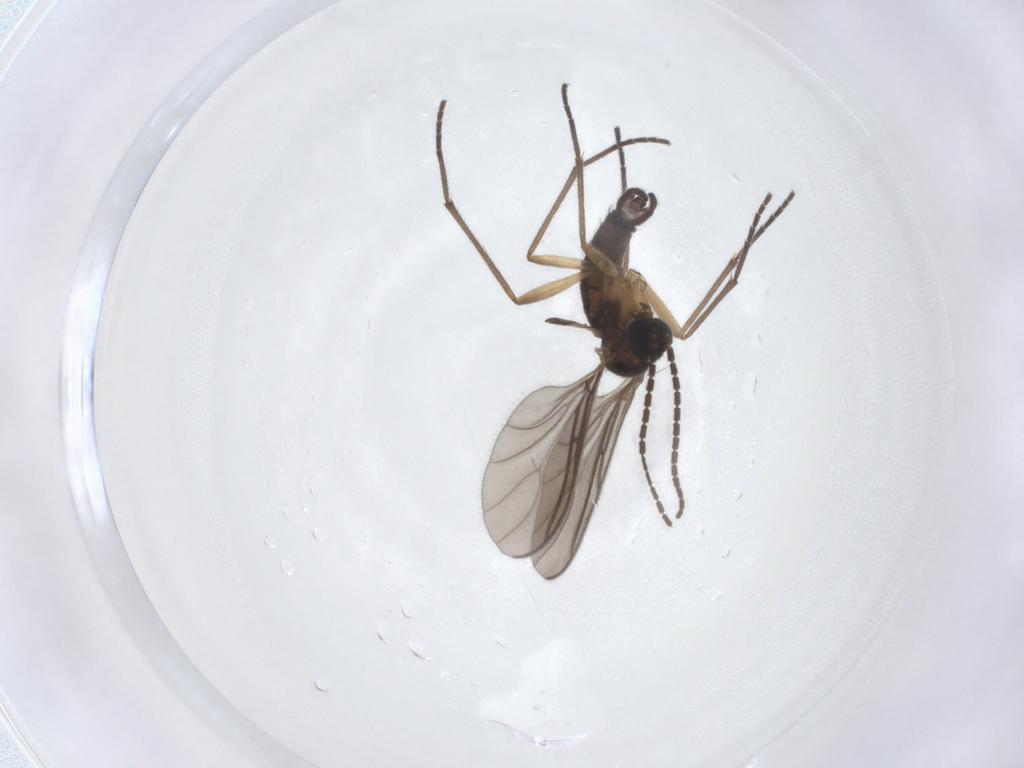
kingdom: Animalia
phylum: Arthropoda
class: Insecta
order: Diptera
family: Sciaridae
